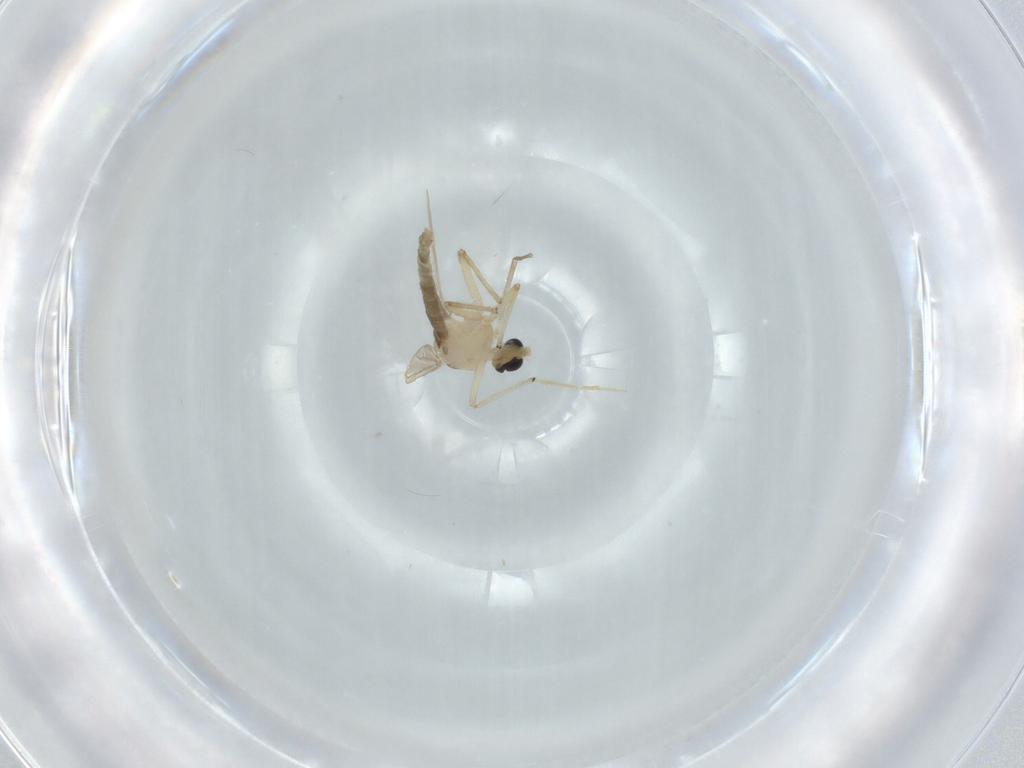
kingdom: Animalia
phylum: Arthropoda
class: Insecta
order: Diptera
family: Chironomidae
